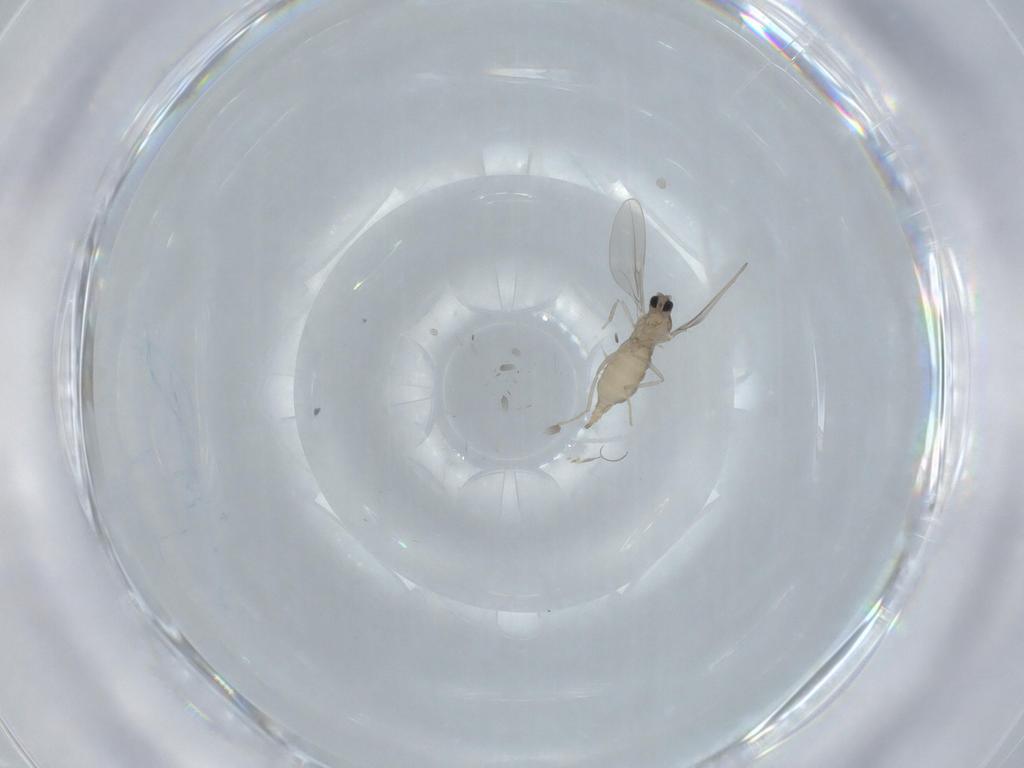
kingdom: Animalia
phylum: Arthropoda
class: Insecta
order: Diptera
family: Cecidomyiidae
